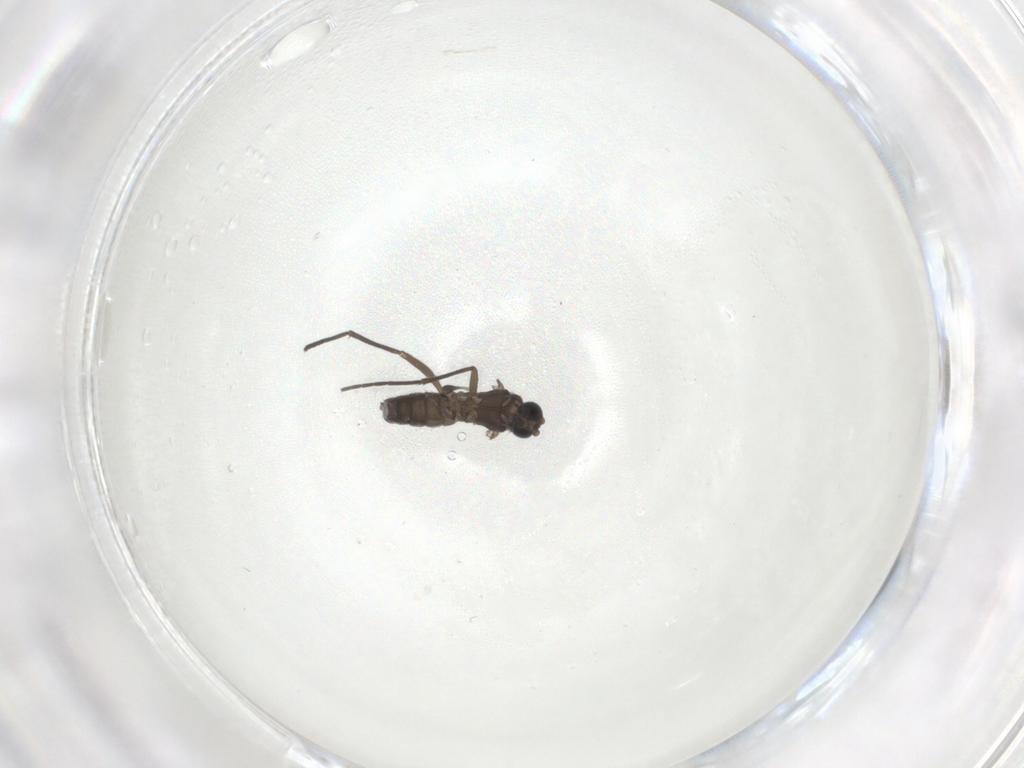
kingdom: Animalia
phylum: Arthropoda
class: Insecta
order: Diptera
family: Sciaridae
